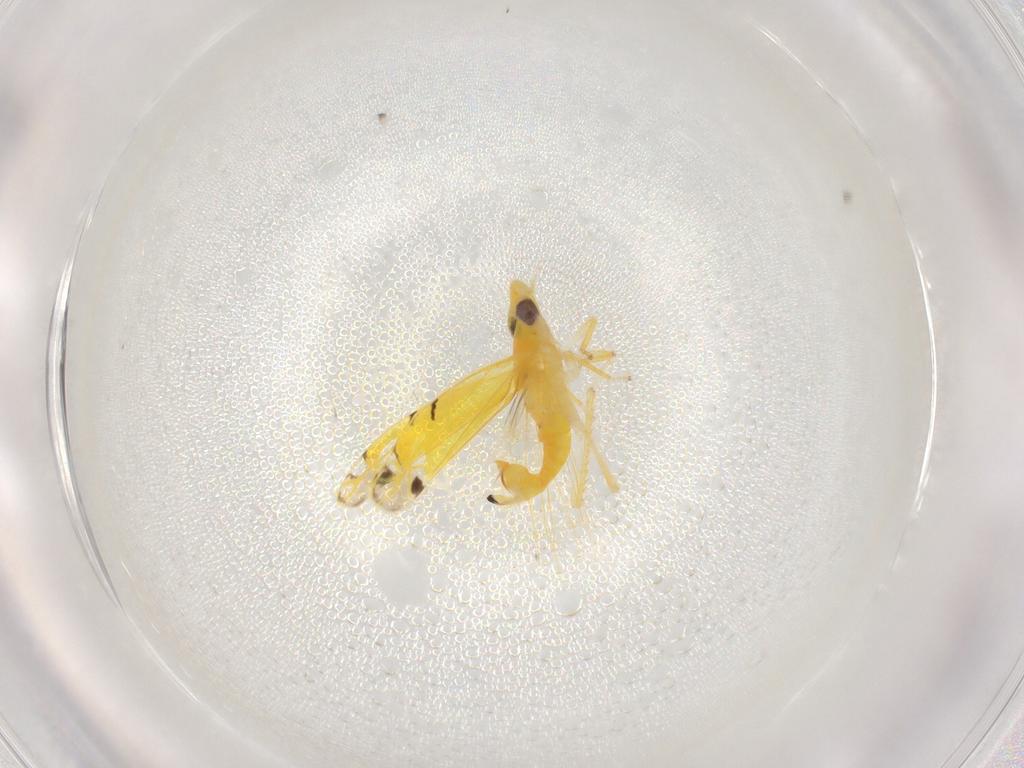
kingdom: Animalia
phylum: Arthropoda
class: Insecta
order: Hemiptera
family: Cicadellidae
